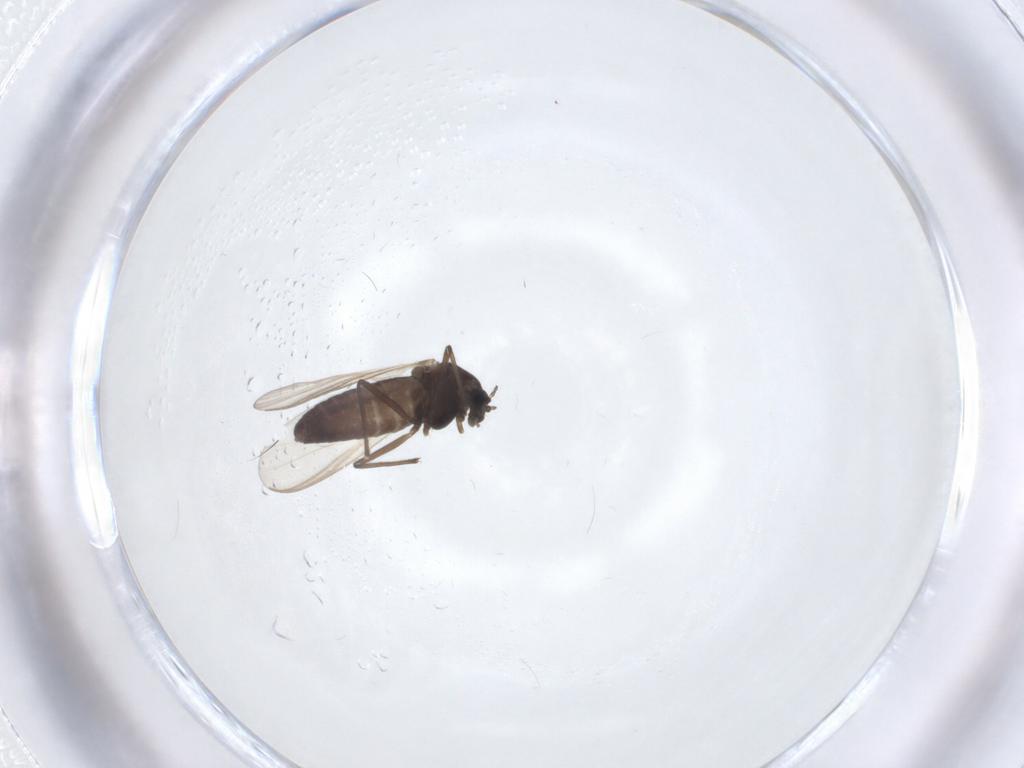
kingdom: Animalia
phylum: Arthropoda
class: Insecta
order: Diptera
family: Chironomidae
